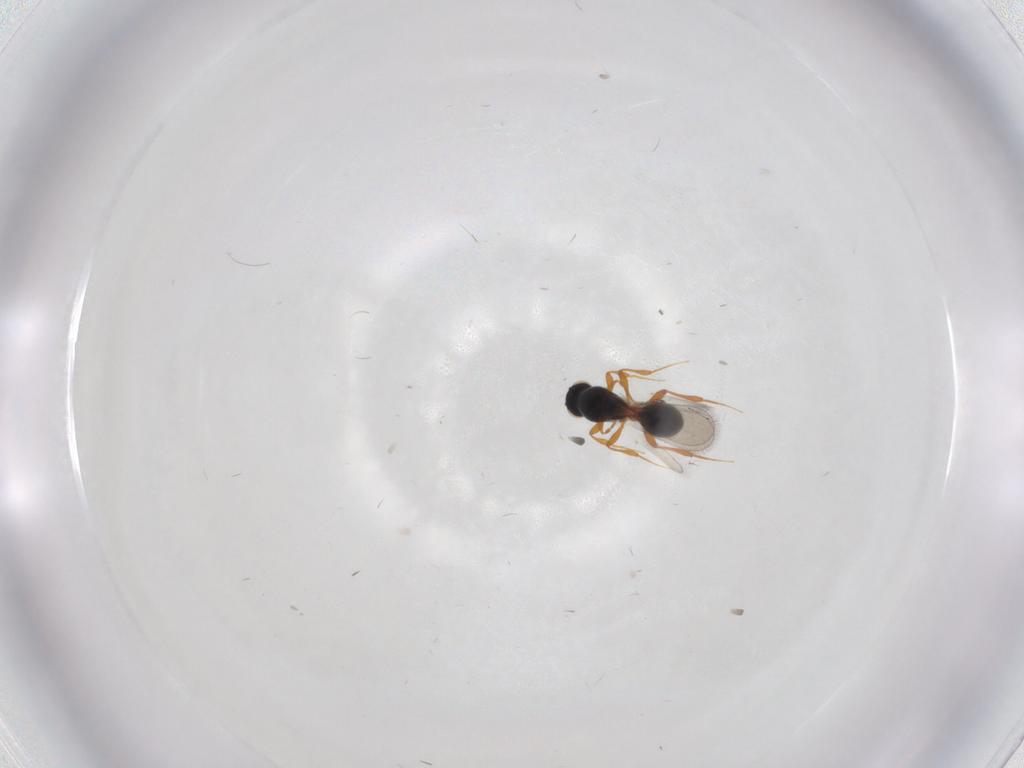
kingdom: Animalia
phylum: Arthropoda
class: Insecta
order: Hymenoptera
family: Platygastridae
